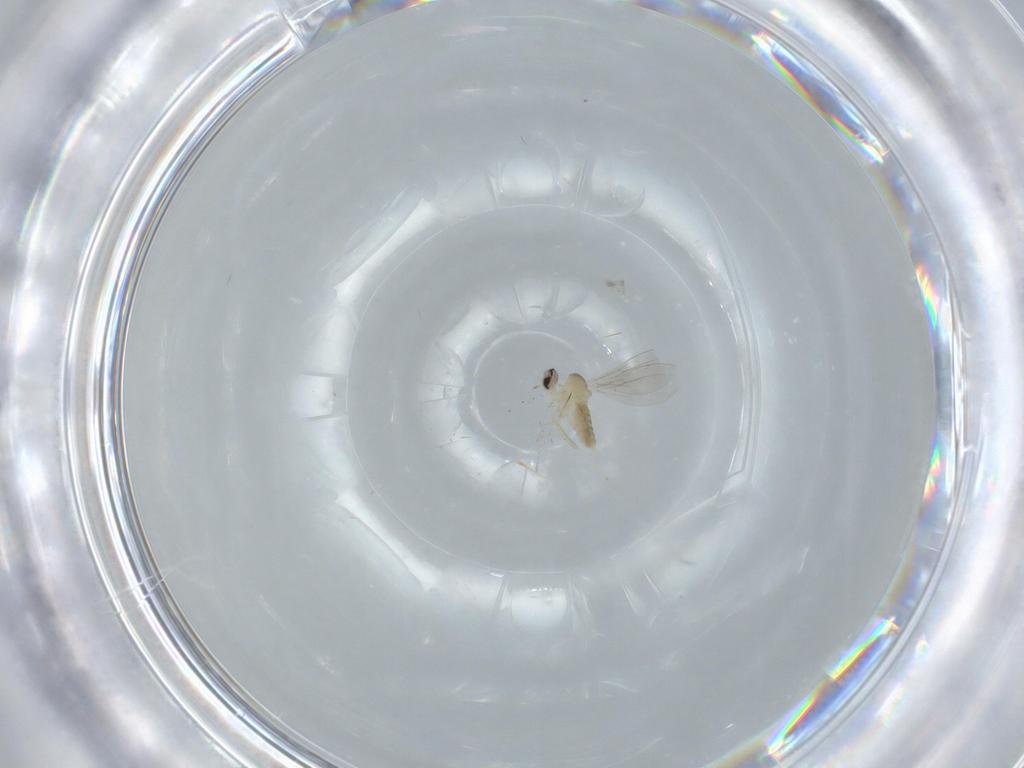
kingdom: Animalia
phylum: Arthropoda
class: Insecta
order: Diptera
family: Cecidomyiidae
